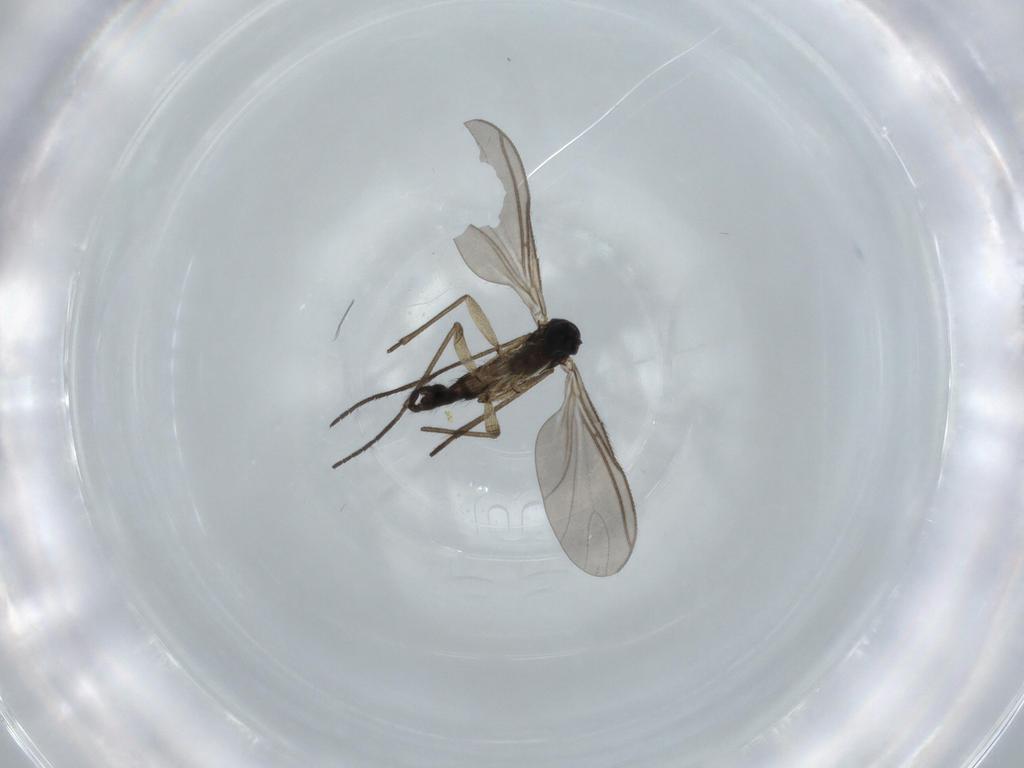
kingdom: Animalia
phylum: Arthropoda
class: Insecta
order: Diptera
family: Sciaridae
